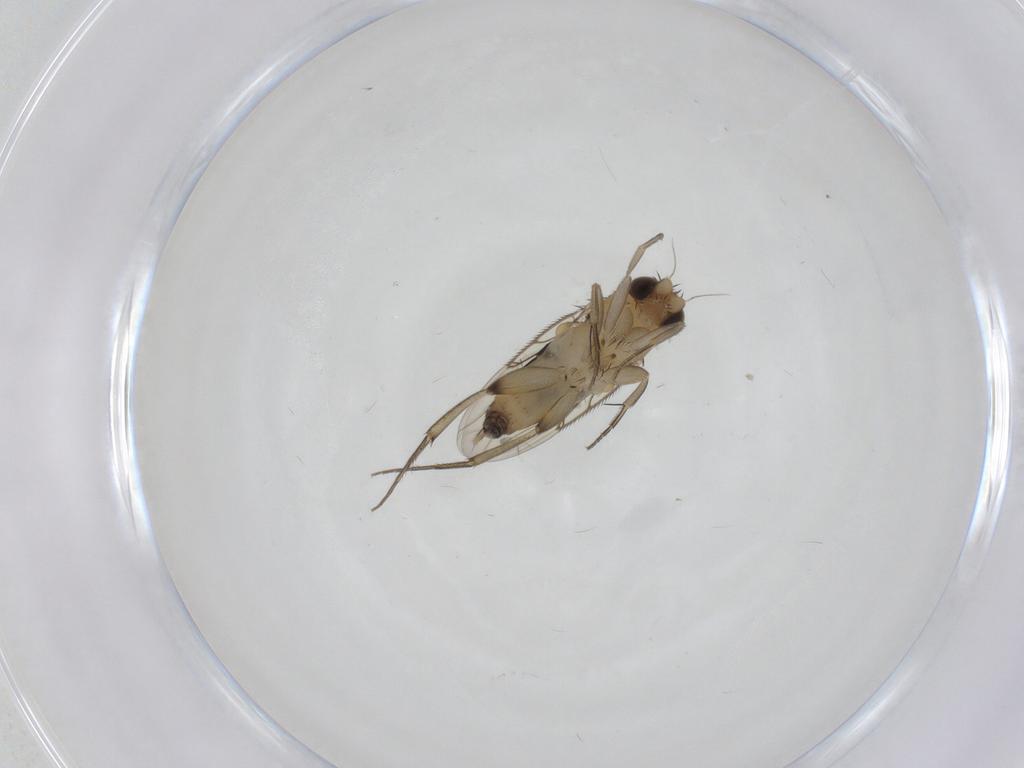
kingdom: Animalia
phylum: Arthropoda
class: Insecta
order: Diptera
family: Phoridae
